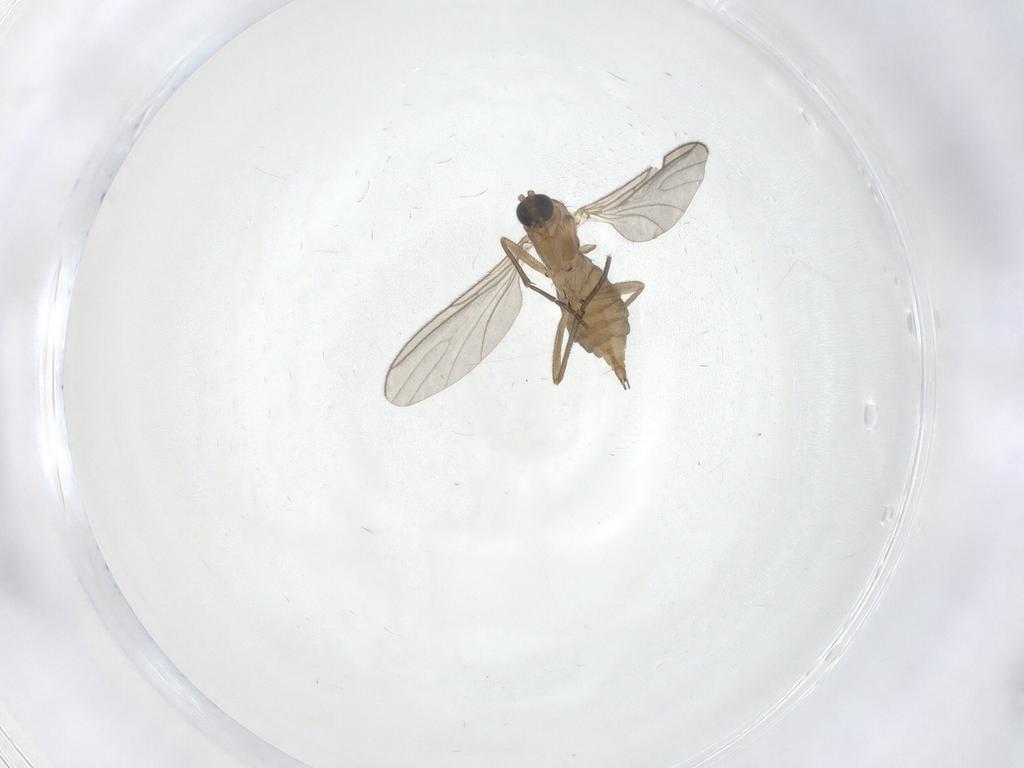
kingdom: Animalia
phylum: Arthropoda
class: Insecta
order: Diptera
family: Sciaridae
